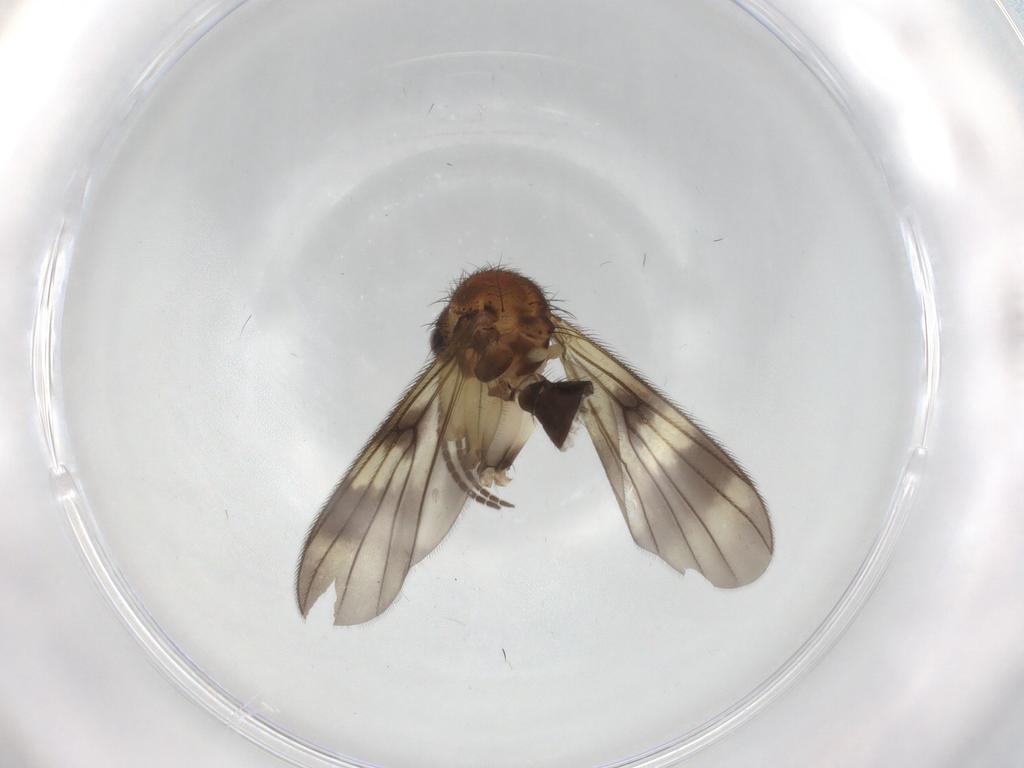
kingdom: Animalia
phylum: Arthropoda
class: Insecta
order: Diptera
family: Chironomidae
